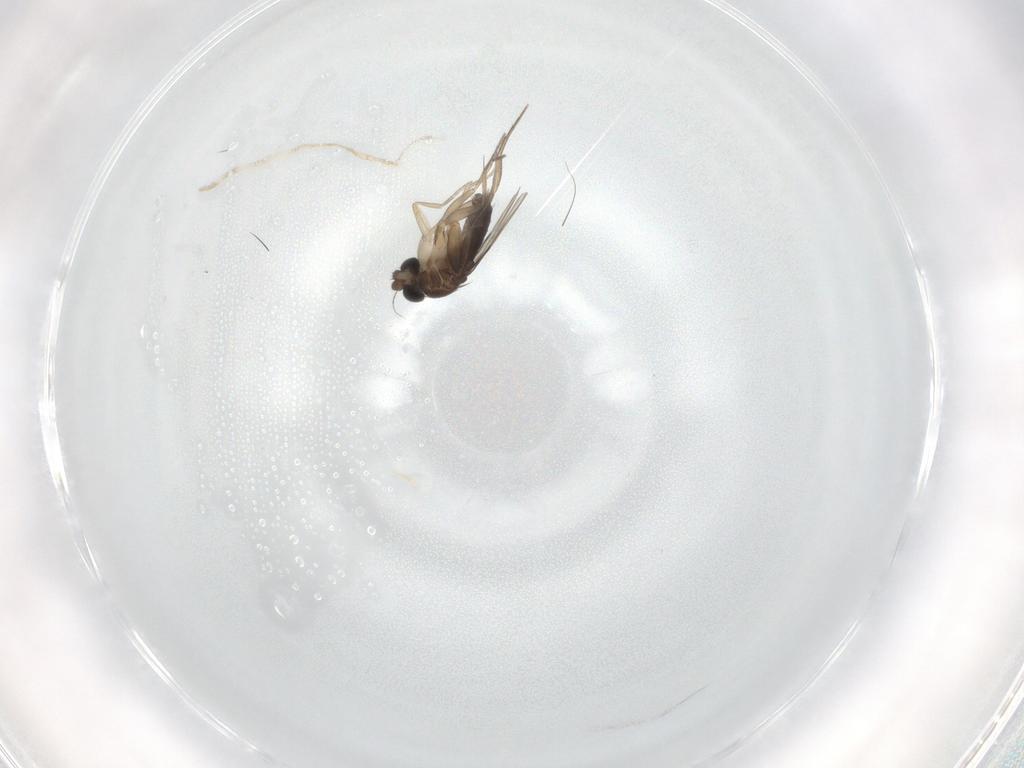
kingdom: Animalia
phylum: Arthropoda
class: Insecta
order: Diptera
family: Phoridae
